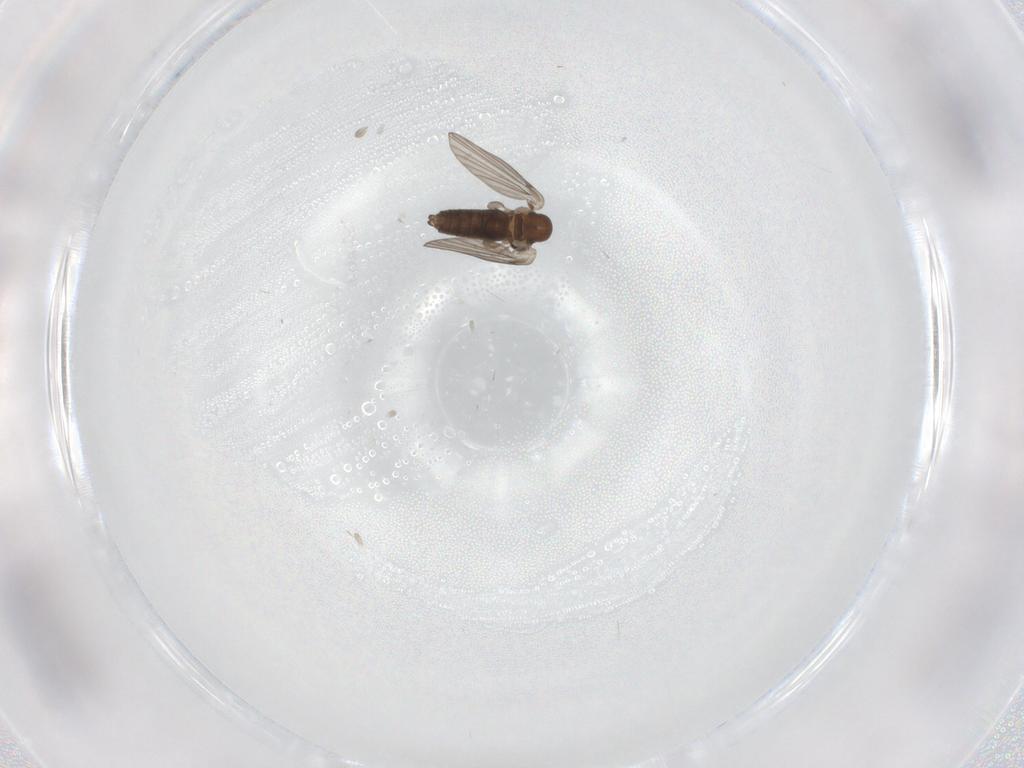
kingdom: Animalia
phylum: Arthropoda
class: Insecta
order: Diptera
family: Psychodidae
